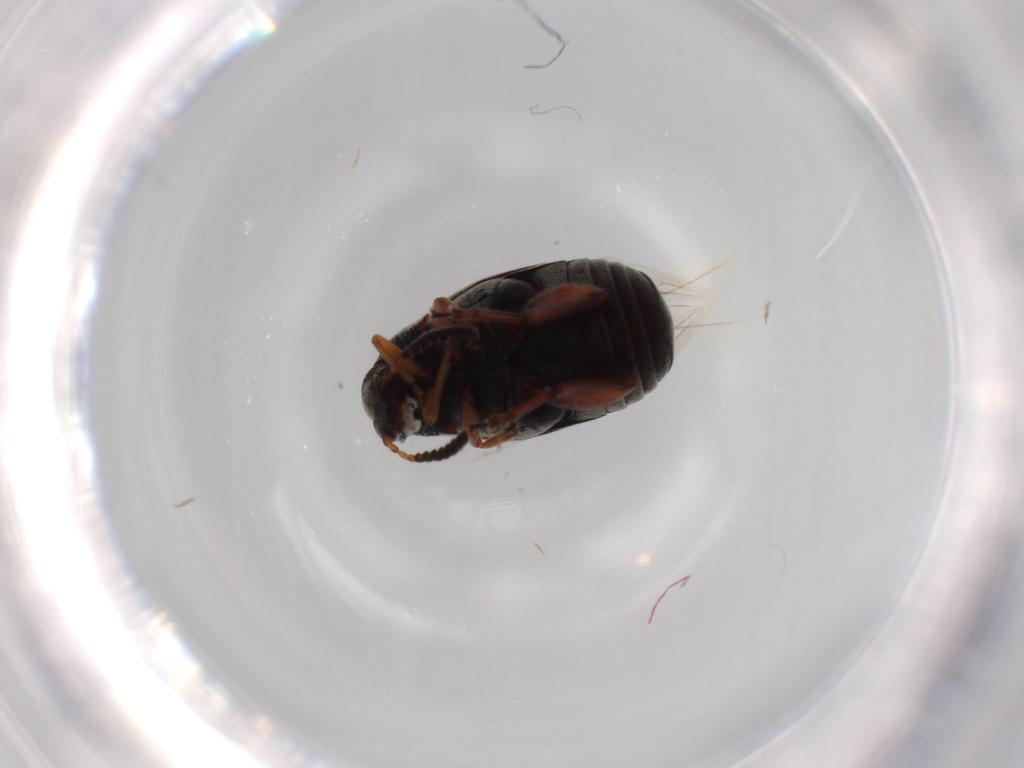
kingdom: Animalia
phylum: Arthropoda
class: Insecta
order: Coleoptera
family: Chrysomelidae
